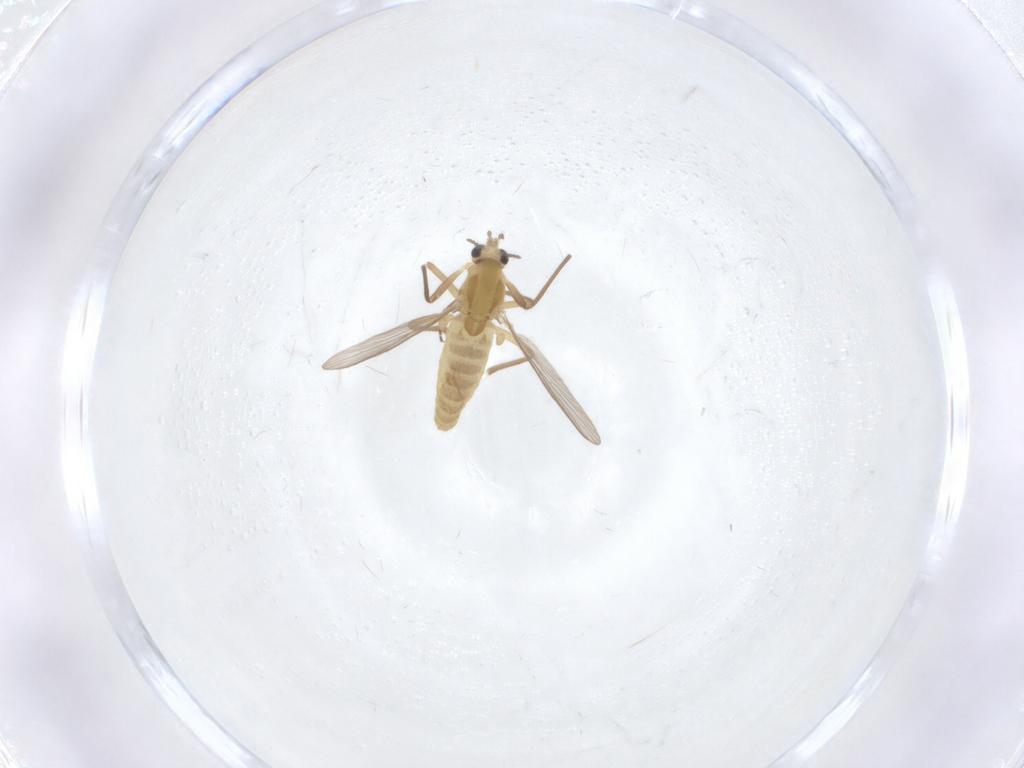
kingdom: Animalia
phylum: Arthropoda
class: Insecta
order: Diptera
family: Chironomidae
